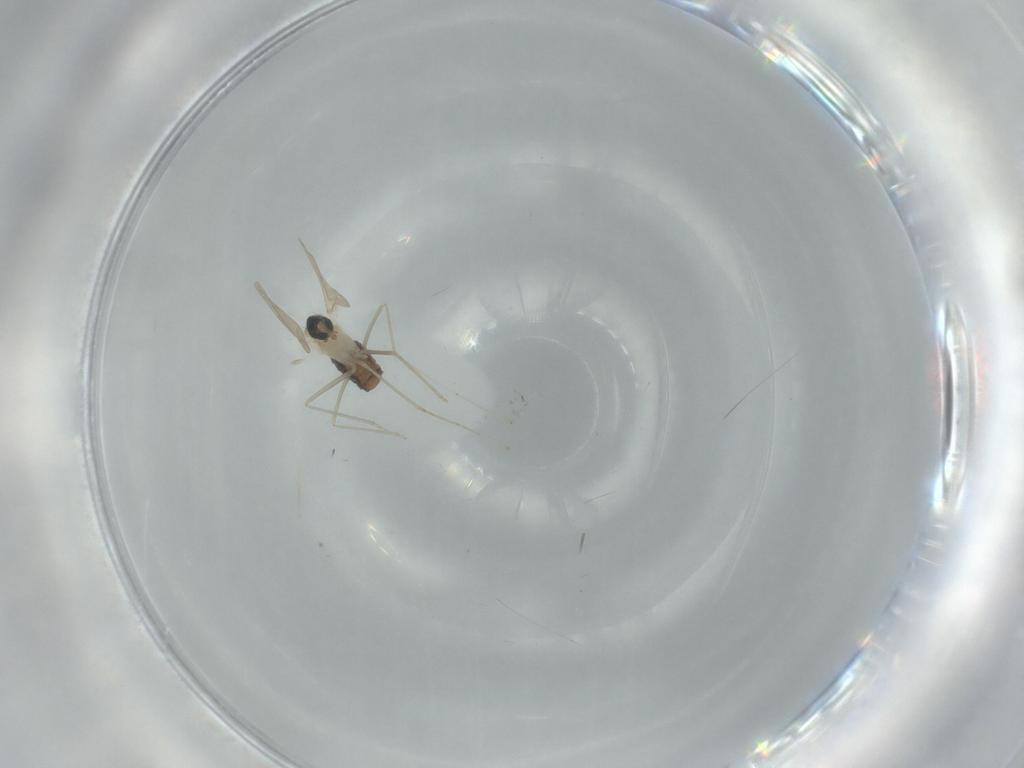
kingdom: Animalia
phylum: Arthropoda
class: Insecta
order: Diptera
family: Cecidomyiidae
